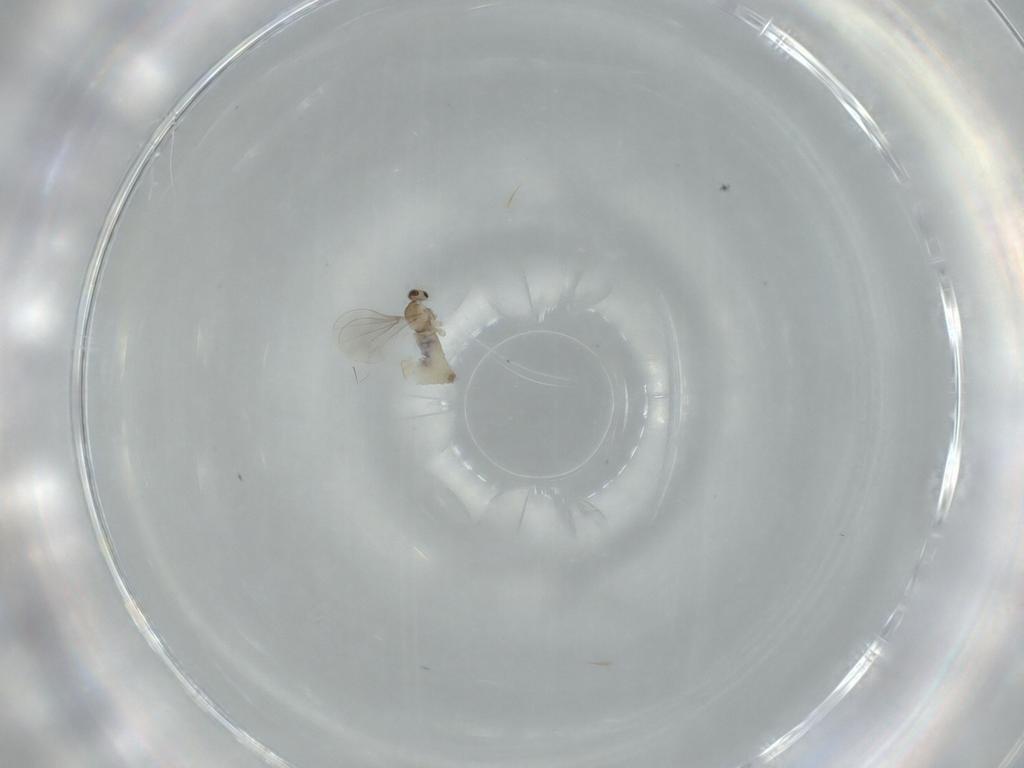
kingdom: Animalia
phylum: Arthropoda
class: Insecta
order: Diptera
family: Cecidomyiidae
